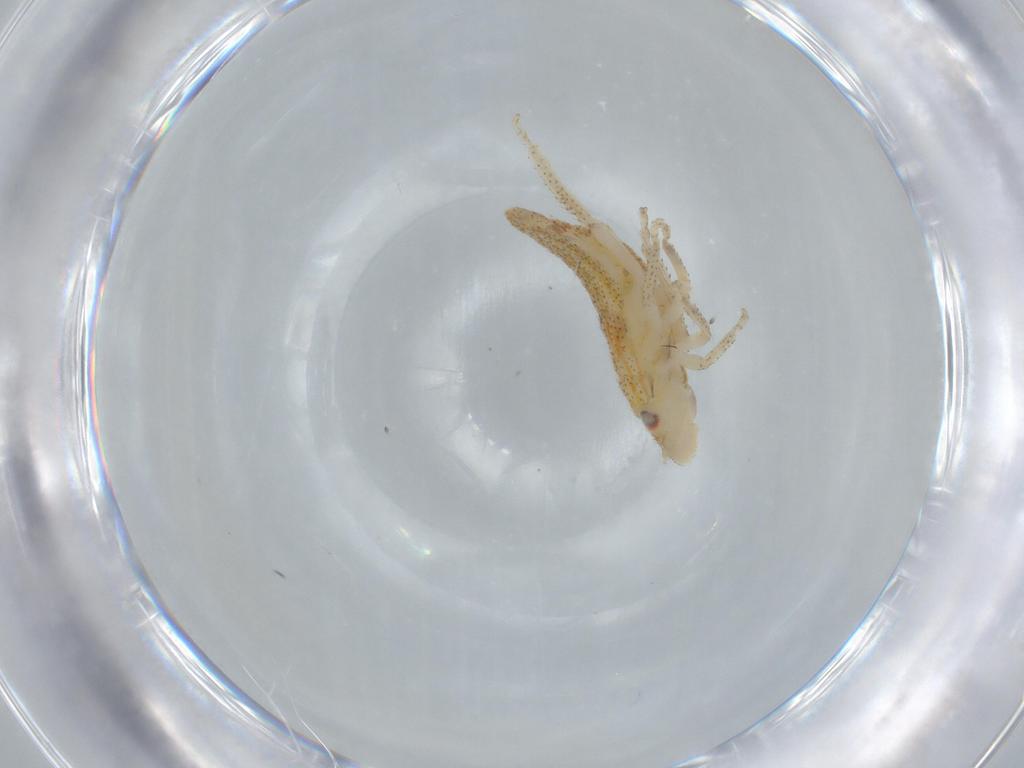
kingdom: Animalia
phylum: Arthropoda
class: Insecta
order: Hemiptera
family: Cicadellidae
